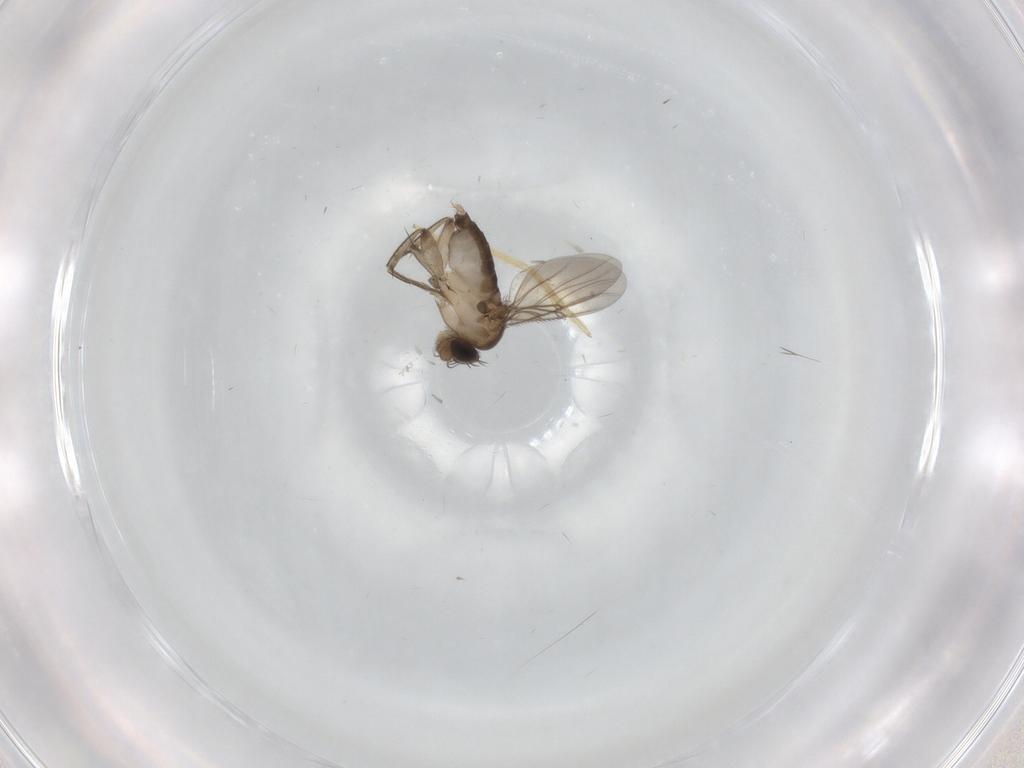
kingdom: Animalia
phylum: Arthropoda
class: Insecta
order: Diptera
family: Phoridae
